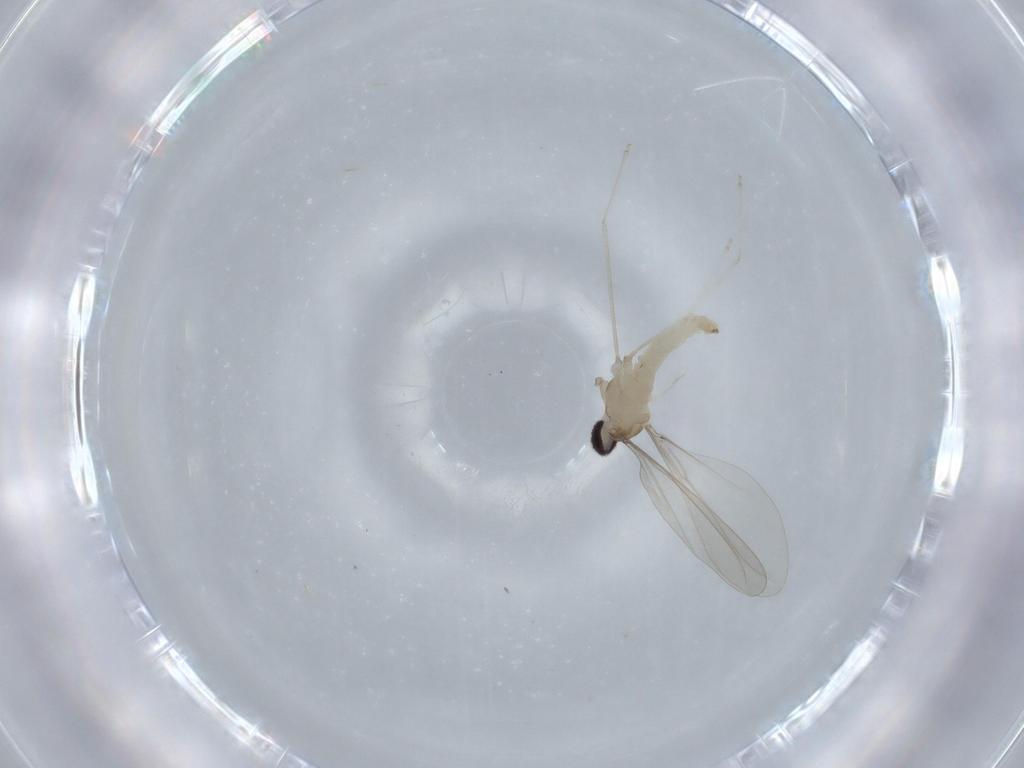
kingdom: Animalia
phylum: Arthropoda
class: Insecta
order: Diptera
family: Cecidomyiidae
